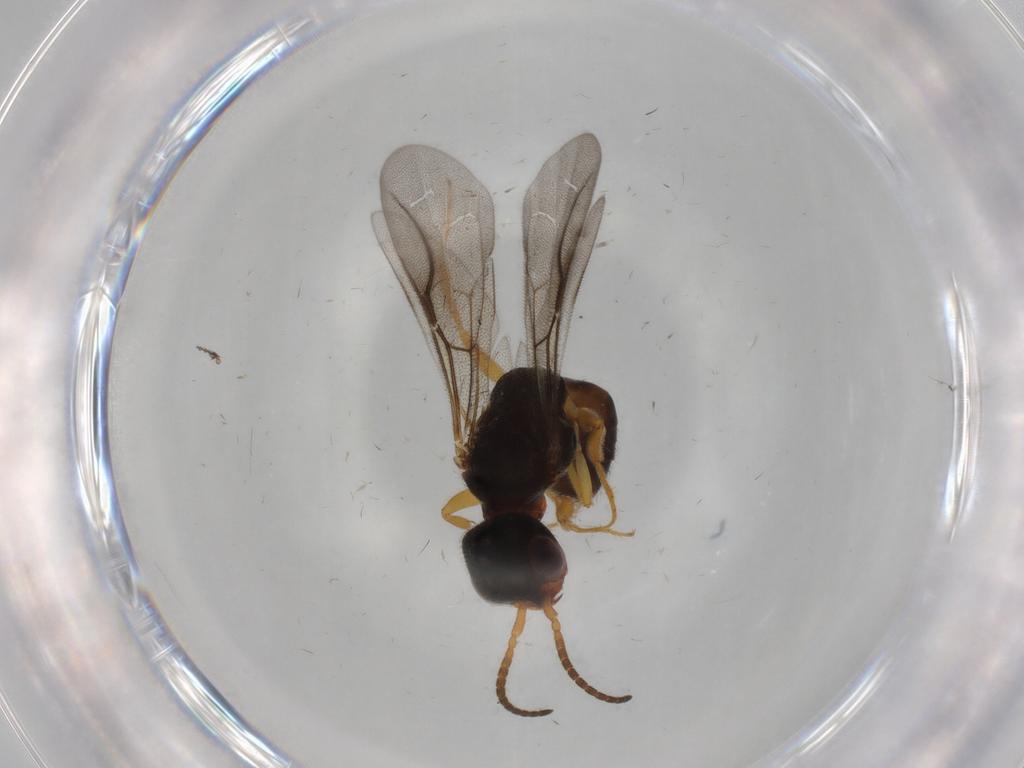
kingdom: Animalia
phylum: Arthropoda
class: Insecta
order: Hymenoptera
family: Bethylidae
